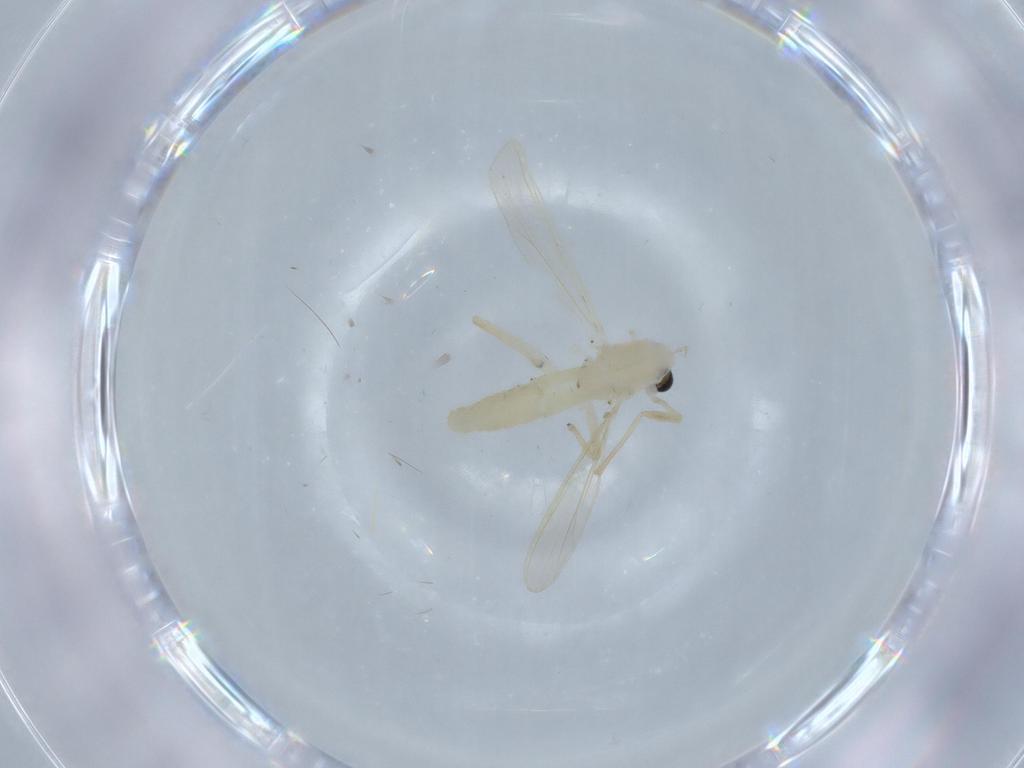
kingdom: Animalia
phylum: Arthropoda
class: Insecta
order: Diptera
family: Chironomidae
